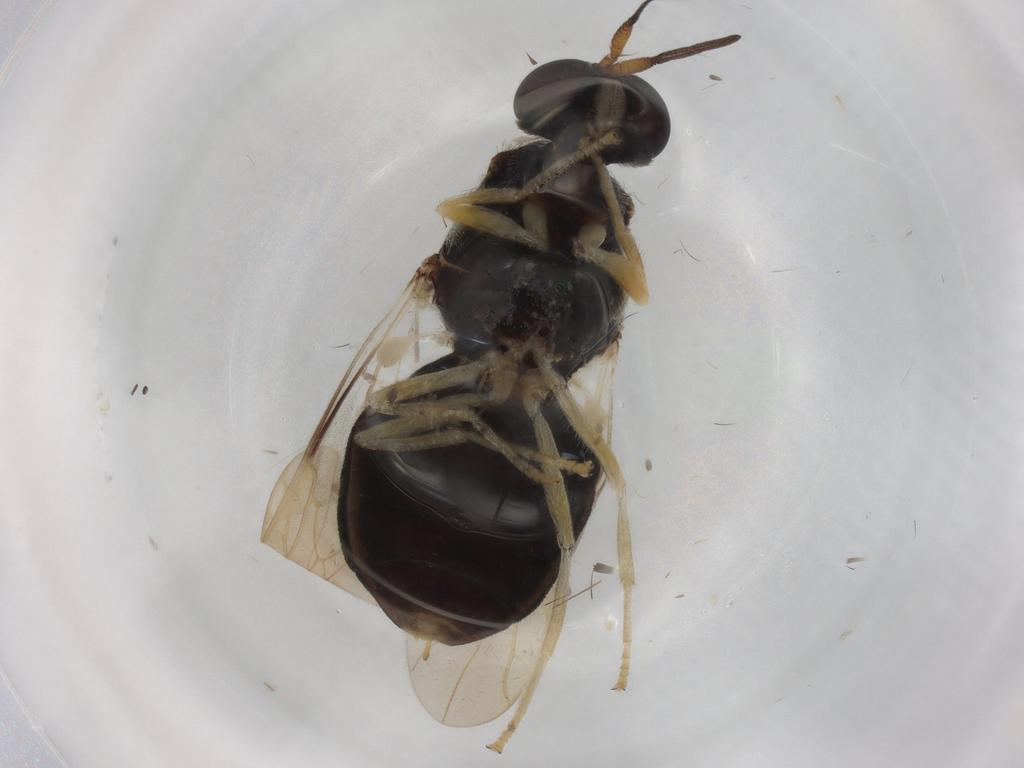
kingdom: Animalia
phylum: Arthropoda
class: Insecta
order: Diptera
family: Stratiomyidae
